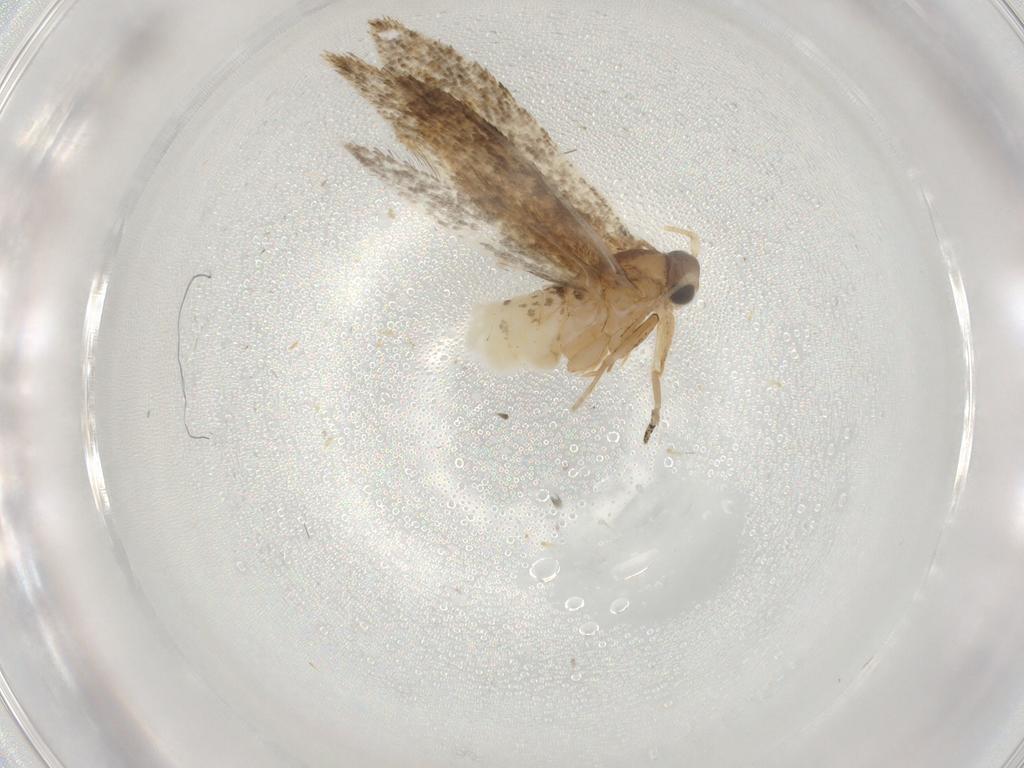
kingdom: Animalia
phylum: Arthropoda
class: Insecta
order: Lepidoptera
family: Tineidae
